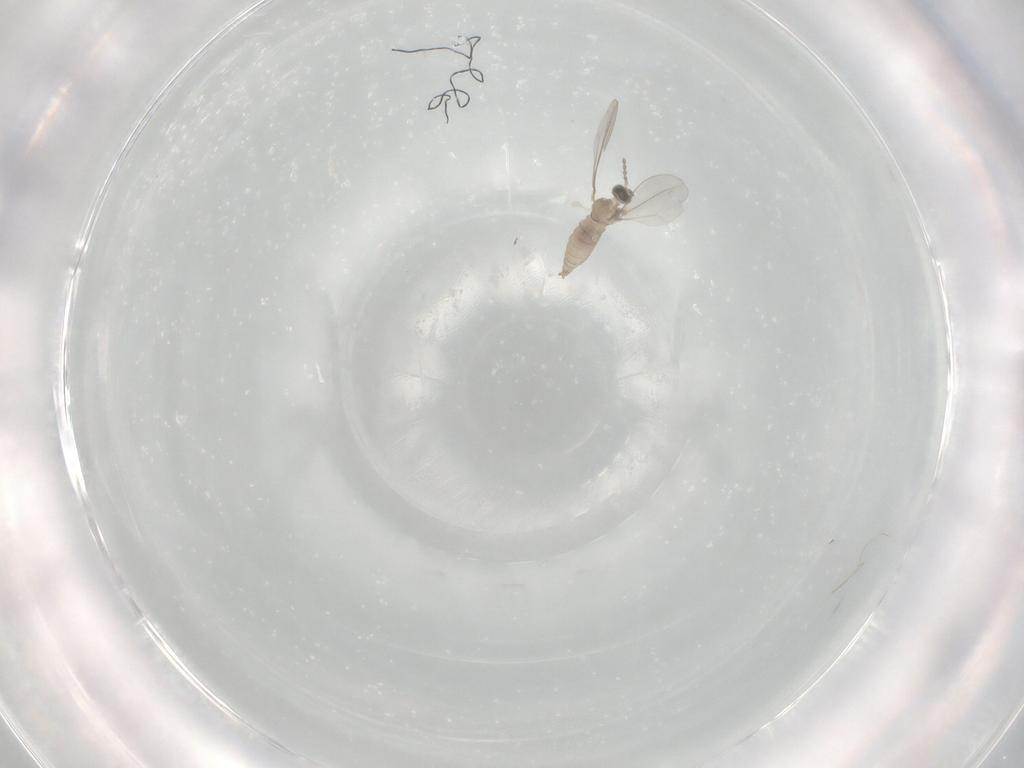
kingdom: Animalia
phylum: Arthropoda
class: Insecta
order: Diptera
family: Cecidomyiidae
